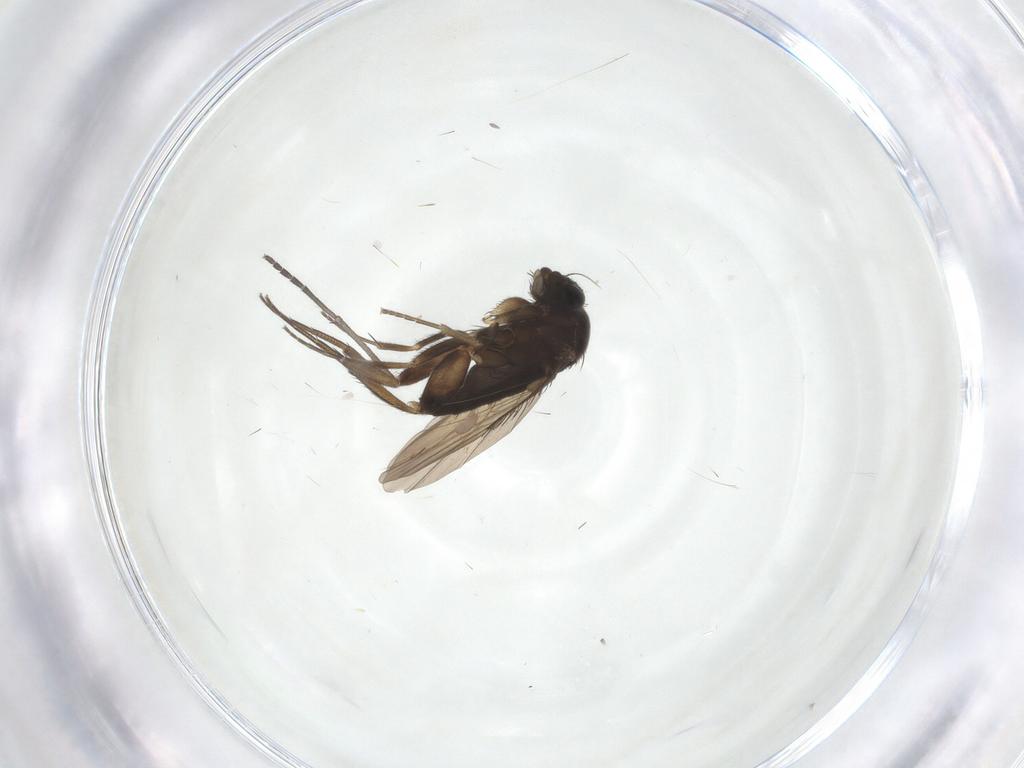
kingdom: Animalia
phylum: Arthropoda
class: Insecta
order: Diptera
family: Phoridae
